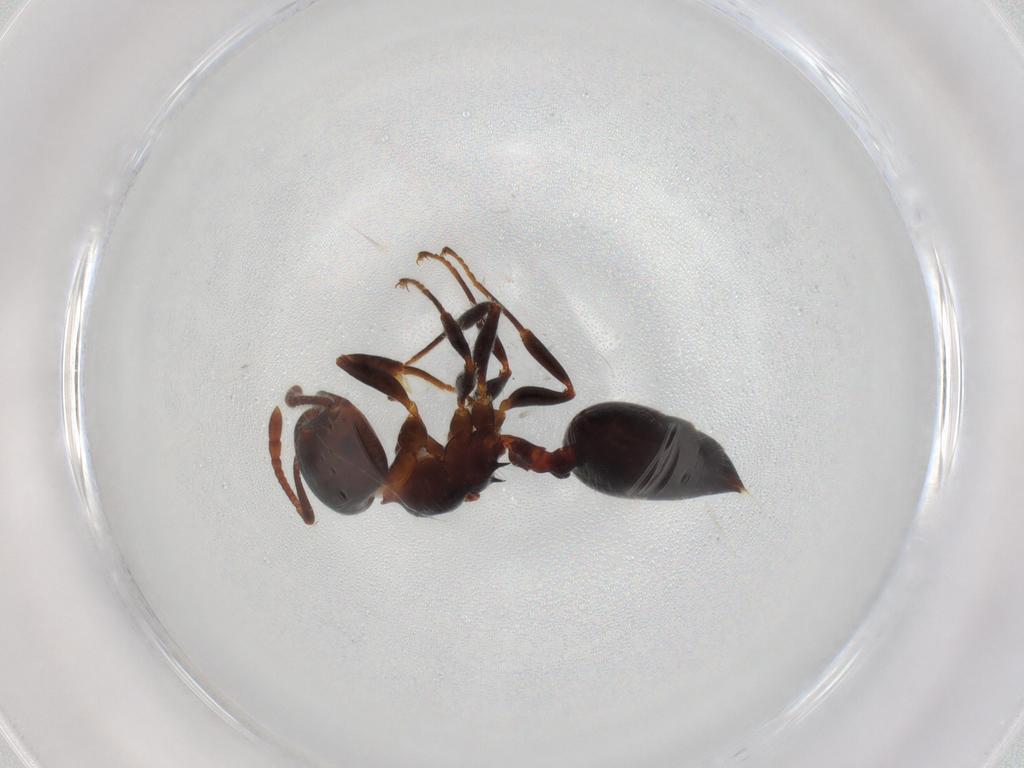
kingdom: Animalia
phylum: Arthropoda
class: Insecta
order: Hymenoptera
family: Formicidae
